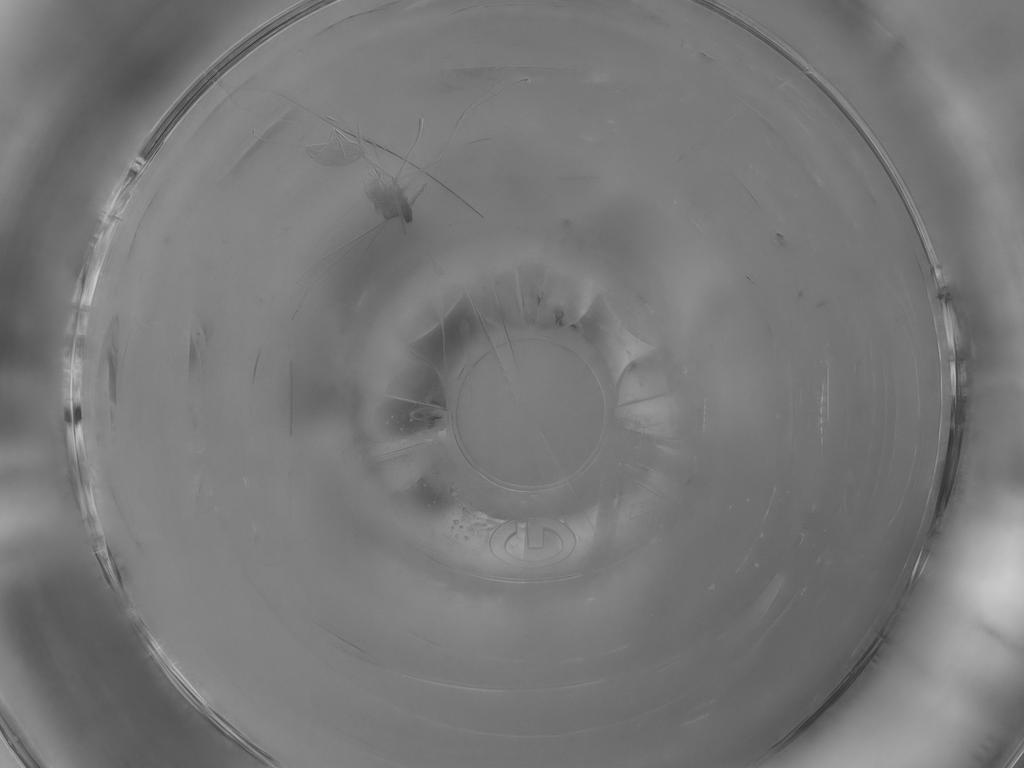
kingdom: Animalia
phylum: Arthropoda
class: Insecta
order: Diptera
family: Cecidomyiidae
